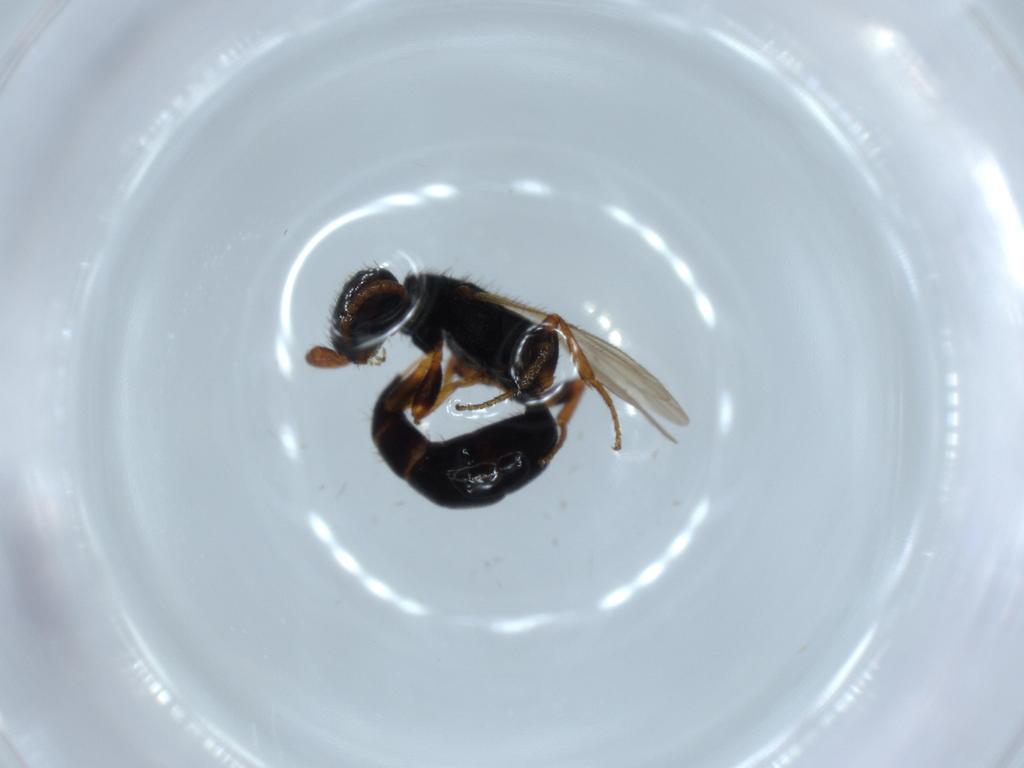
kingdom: Animalia
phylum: Arthropoda
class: Insecta
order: Hymenoptera
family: Bethylidae
